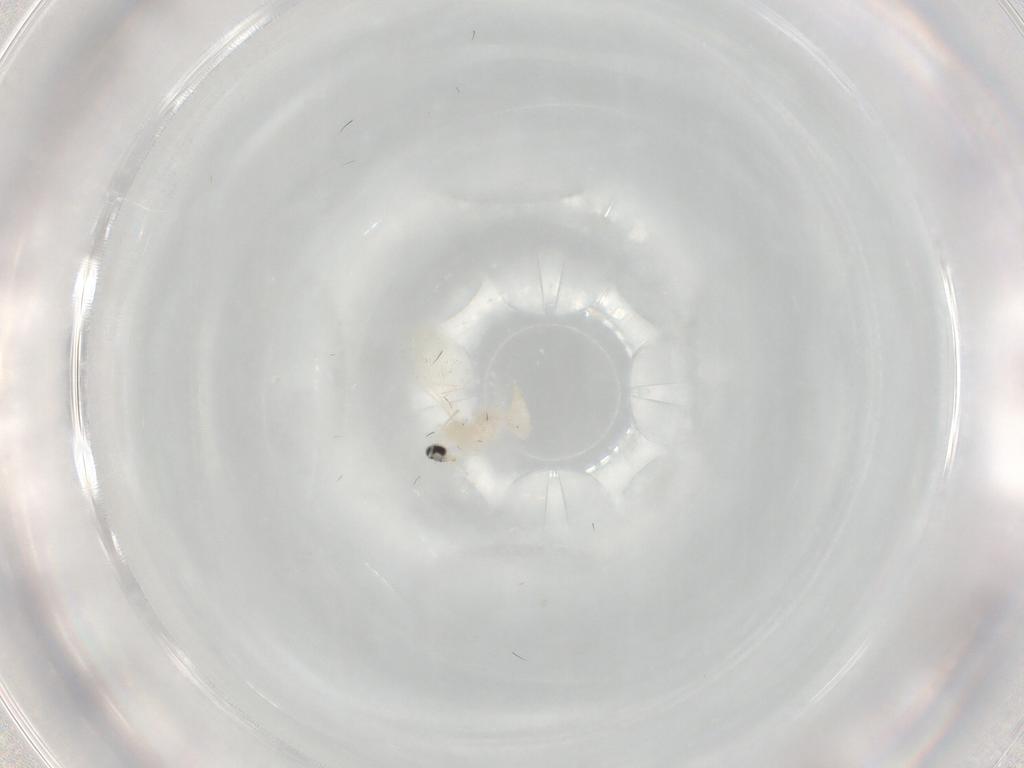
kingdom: Animalia
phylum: Arthropoda
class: Insecta
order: Diptera
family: Cecidomyiidae
